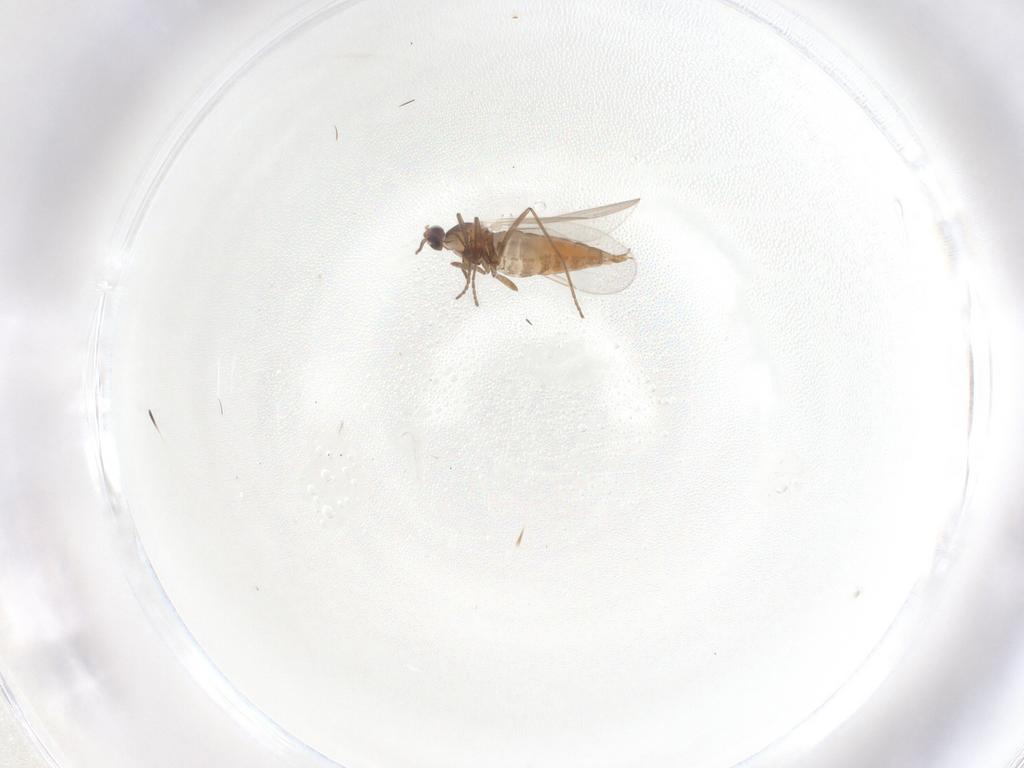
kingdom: Animalia
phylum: Arthropoda
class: Insecta
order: Diptera
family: Cecidomyiidae
